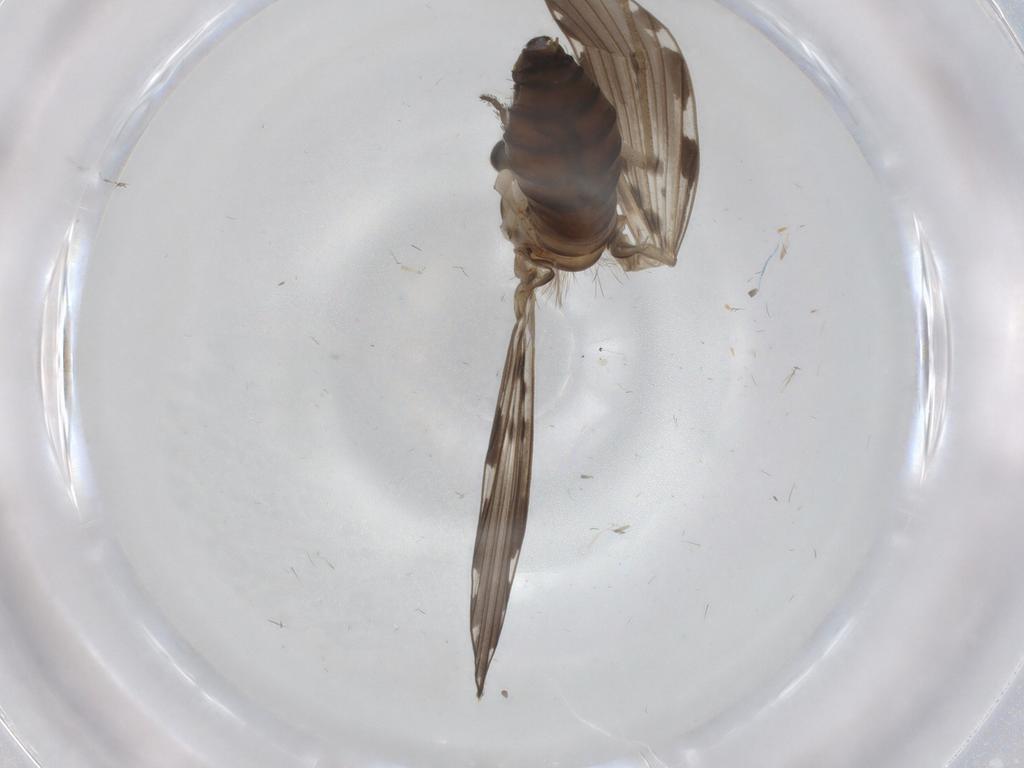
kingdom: Animalia
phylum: Arthropoda
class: Insecta
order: Diptera
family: Psychodidae
